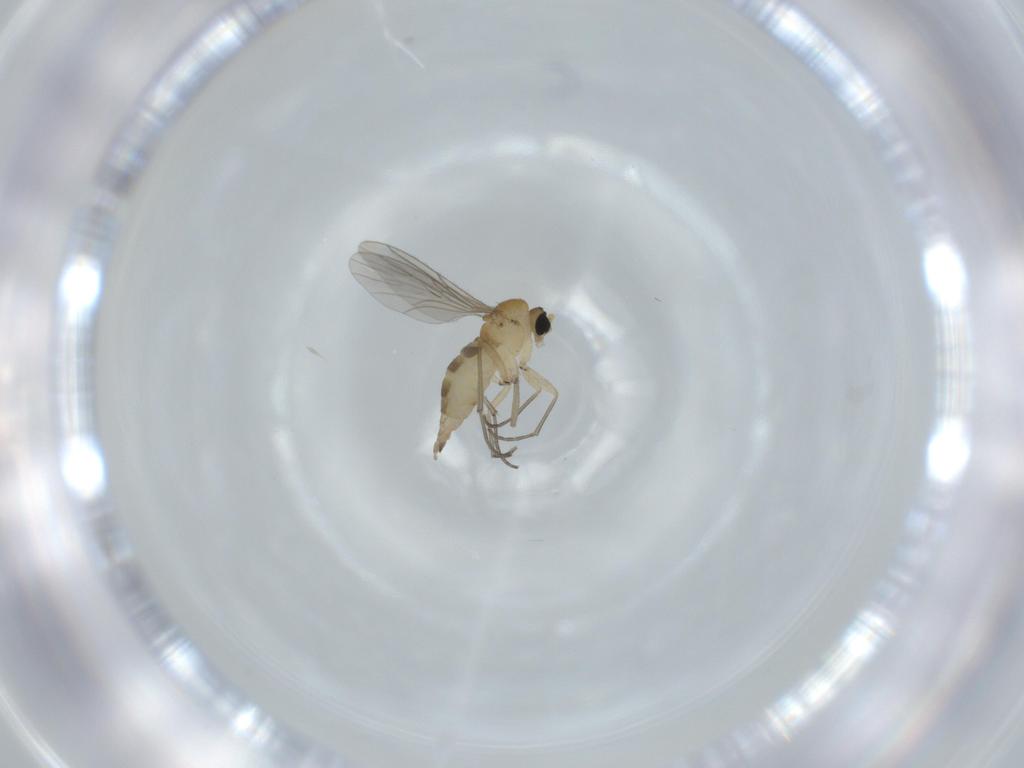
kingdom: Animalia
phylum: Arthropoda
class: Insecta
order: Diptera
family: Sciaridae
